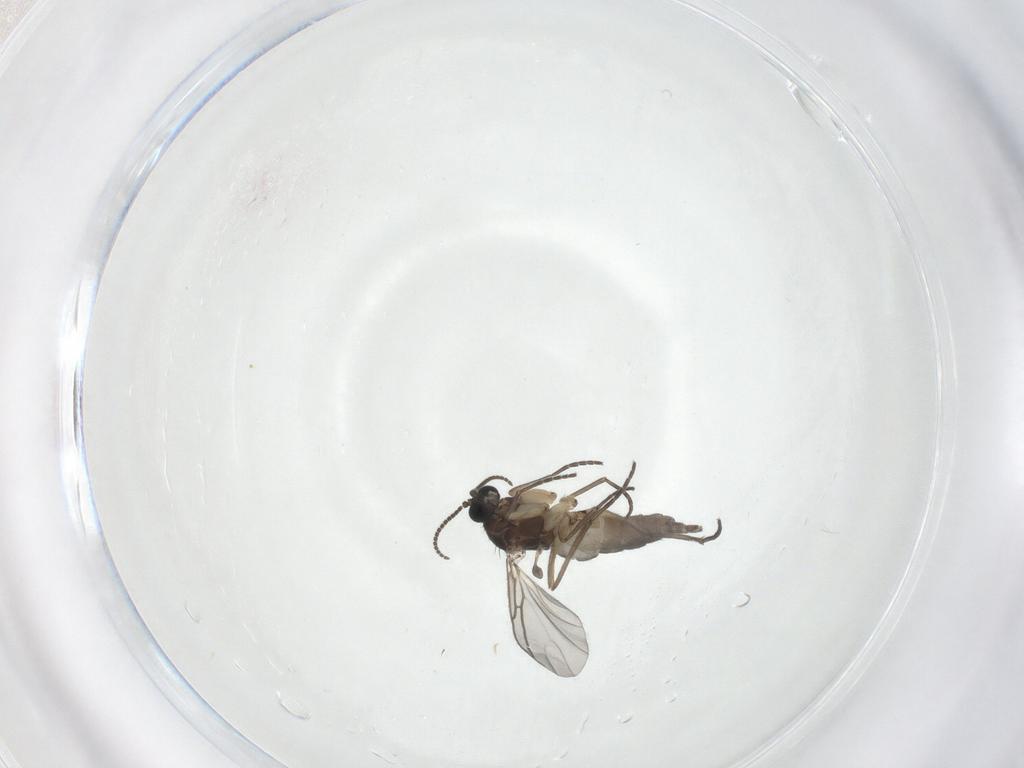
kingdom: Animalia
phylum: Arthropoda
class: Insecta
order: Diptera
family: Sciaridae
